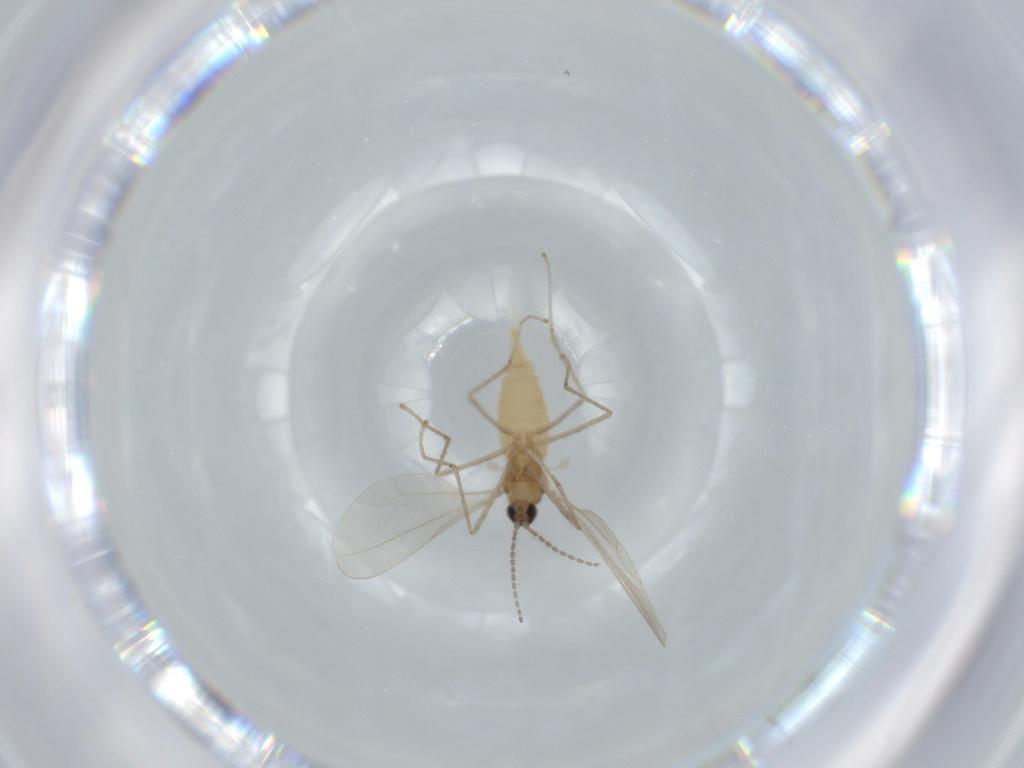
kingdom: Animalia
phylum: Arthropoda
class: Insecta
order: Diptera
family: Cecidomyiidae
